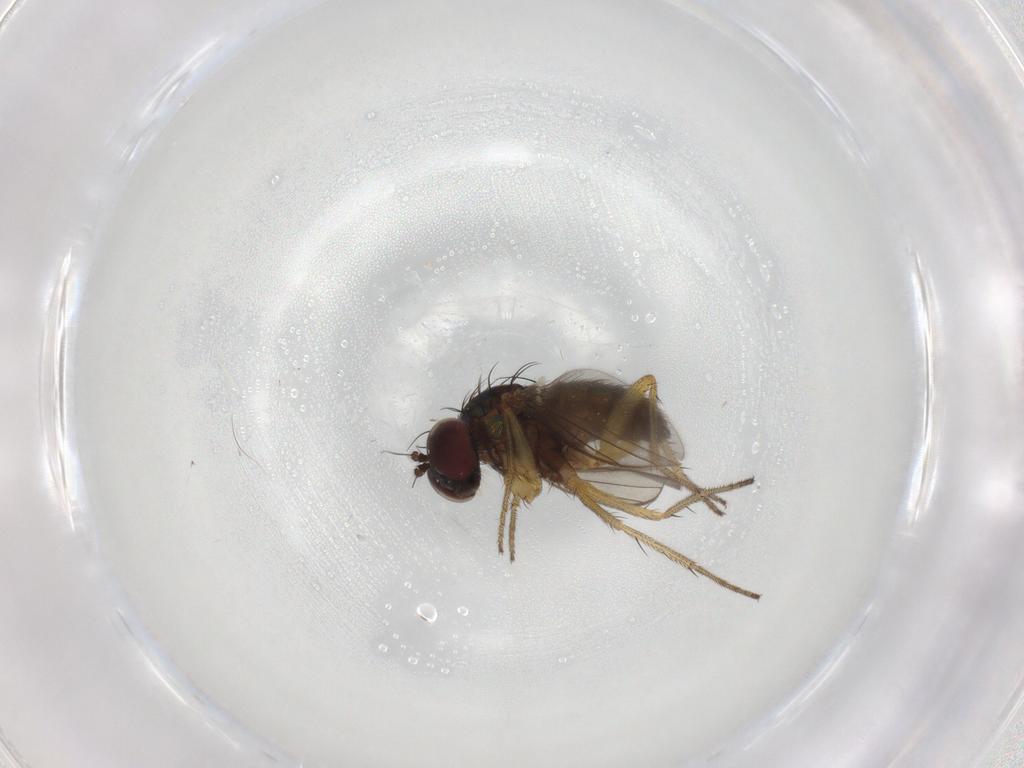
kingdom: Animalia
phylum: Arthropoda
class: Insecta
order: Diptera
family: Dolichopodidae
